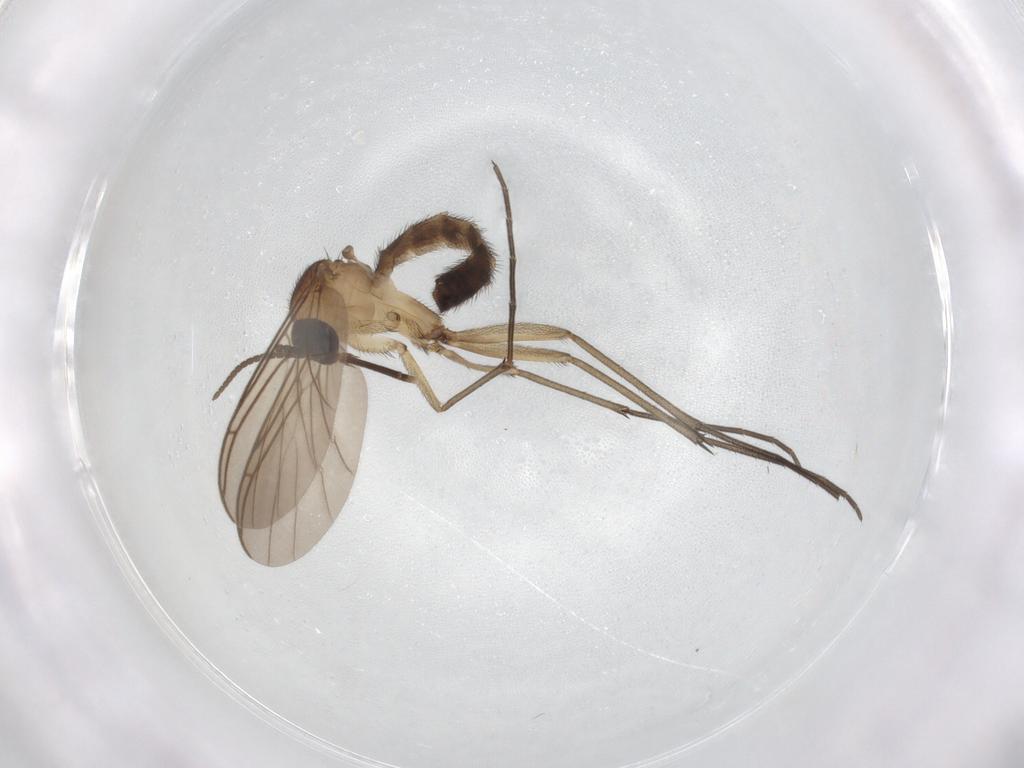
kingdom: Animalia
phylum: Arthropoda
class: Insecta
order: Diptera
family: Keroplatidae
